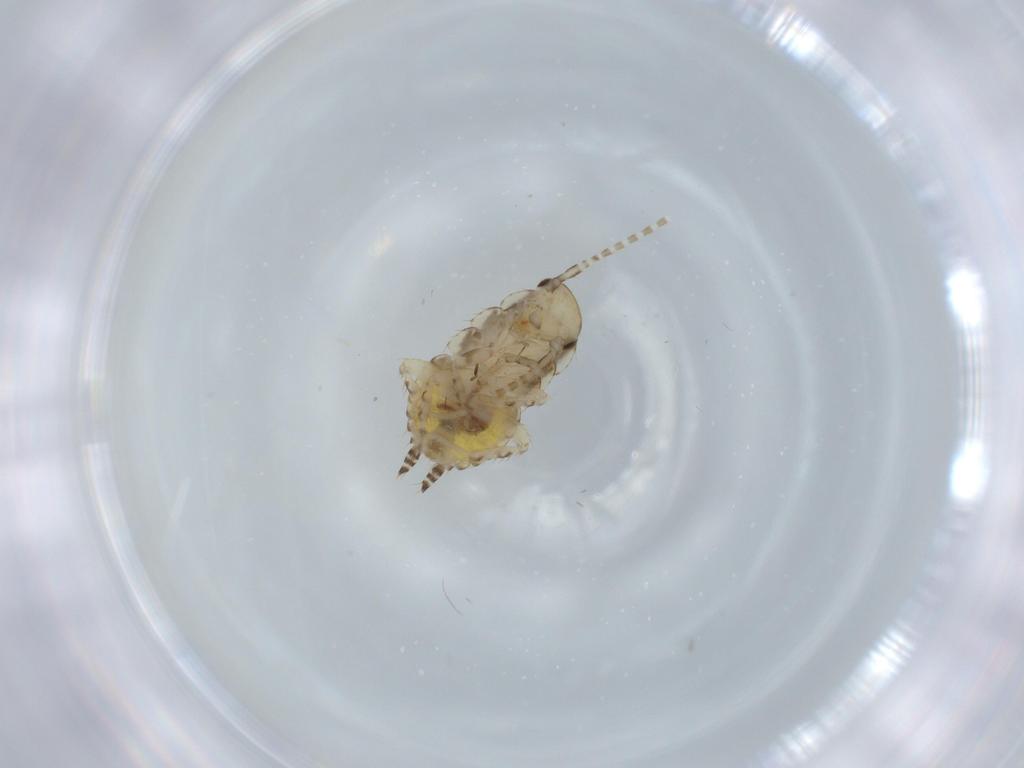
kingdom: Animalia
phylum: Arthropoda
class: Insecta
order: Blattodea
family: Ectobiidae
